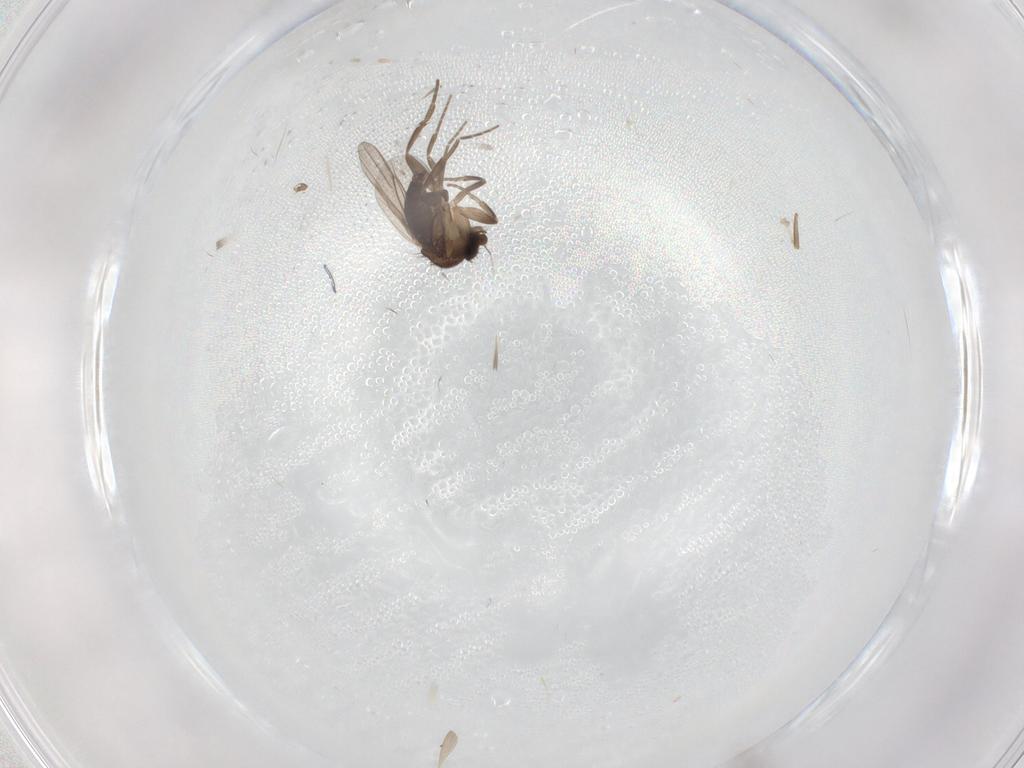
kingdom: Animalia
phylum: Arthropoda
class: Insecta
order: Diptera
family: Phoridae
